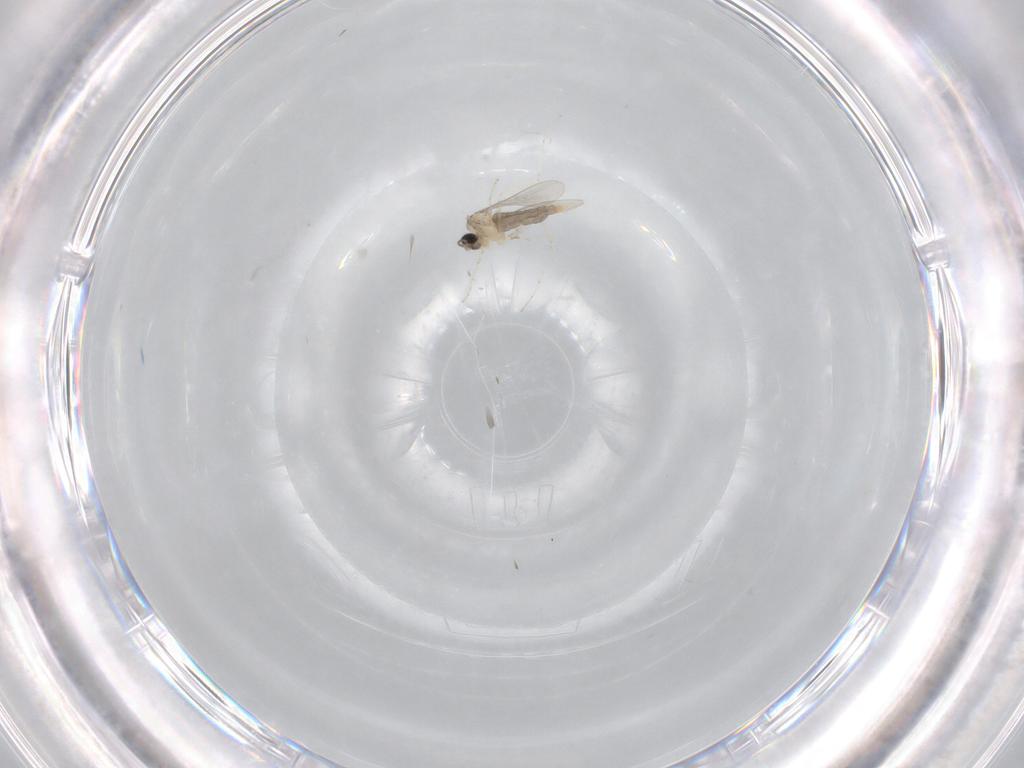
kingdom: Animalia
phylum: Arthropoda
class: Insecta
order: Diptera
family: Cecidomyiidae
